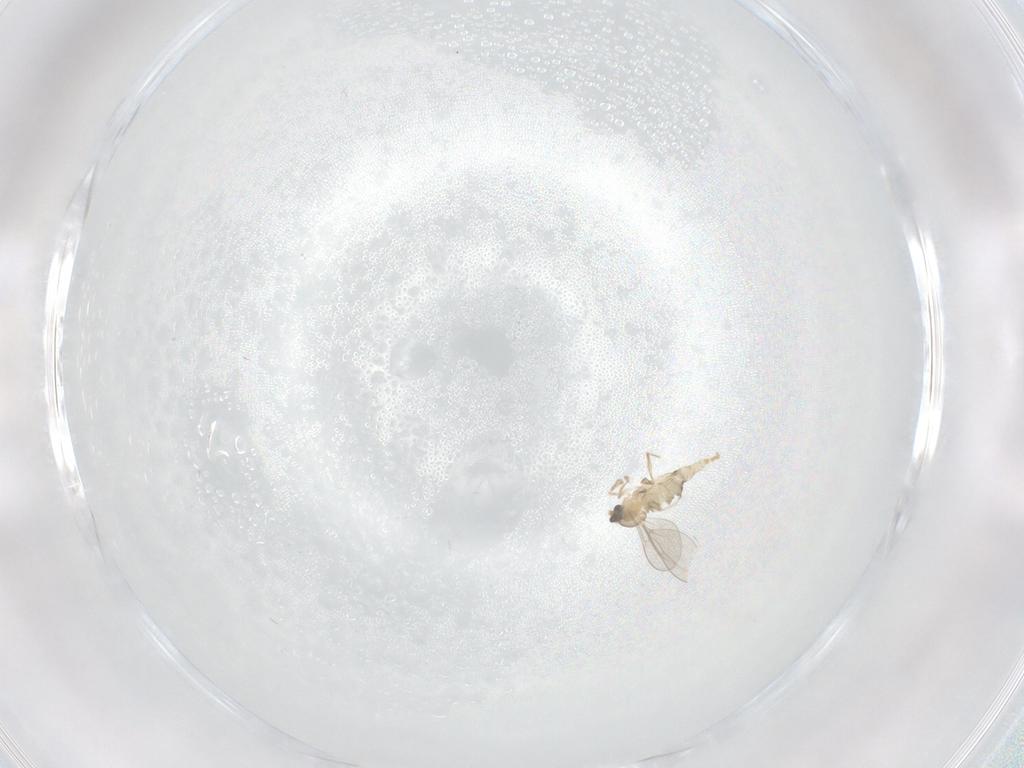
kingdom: Animalia
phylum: Arthropoda
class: Insecta
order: Diptera
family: Cecidomyiidae
